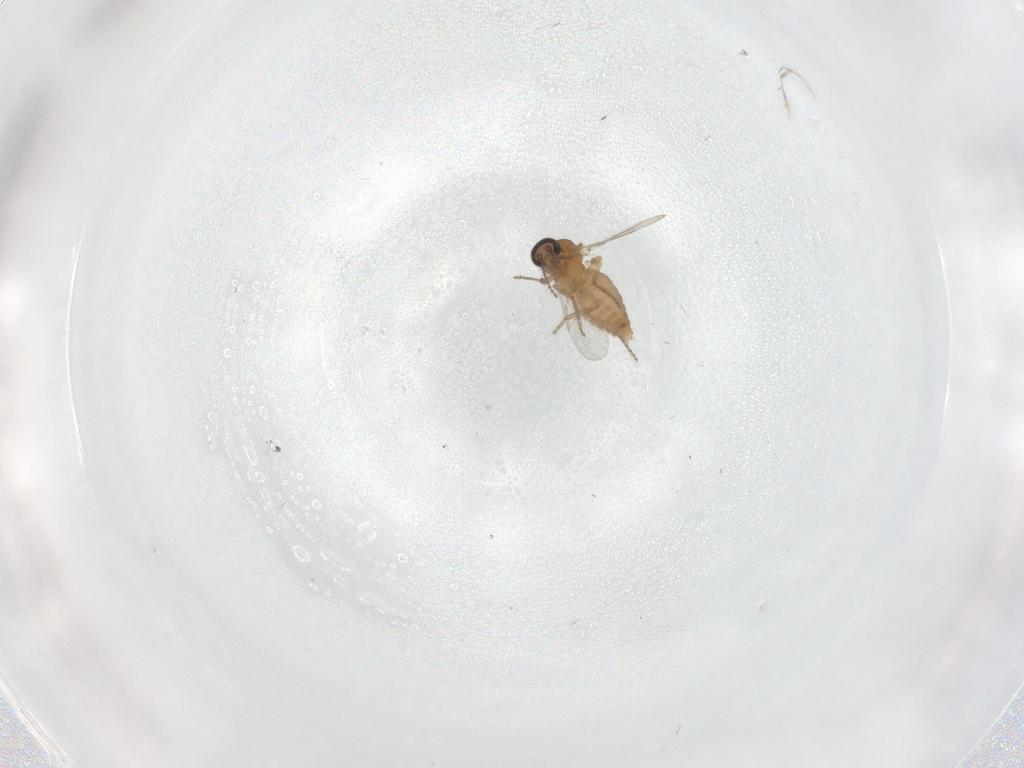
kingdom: Animalia
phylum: Arthropoda
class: Insecta
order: Diptera
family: Ceratopogonidae
